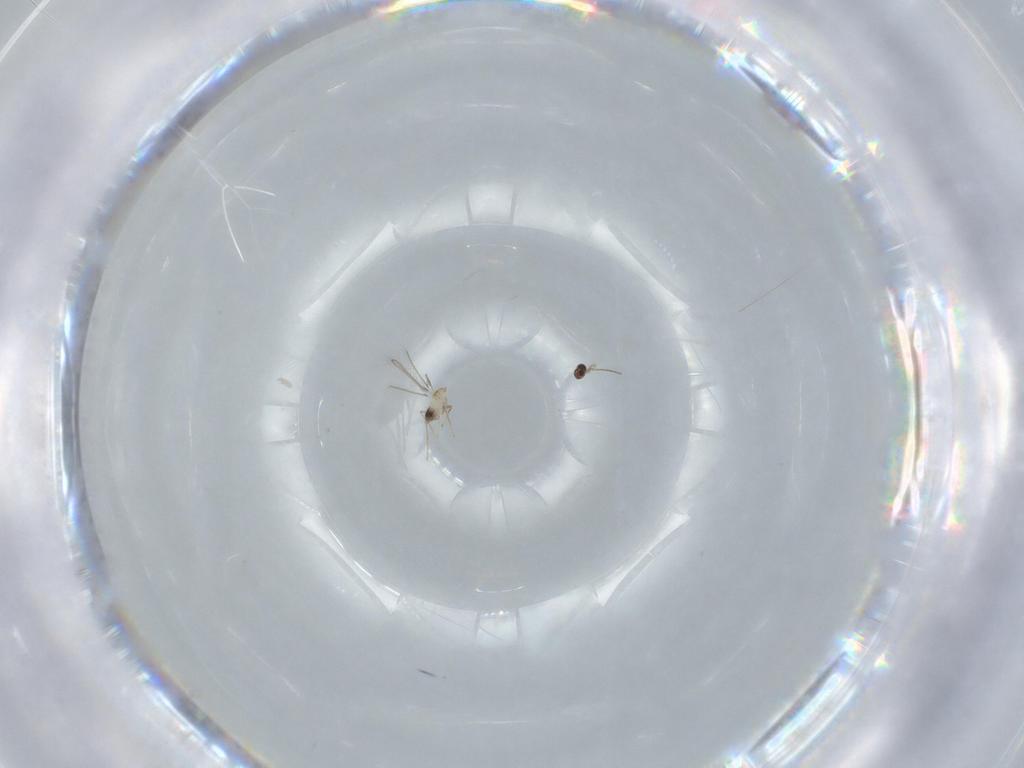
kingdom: Animalia
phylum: Arthropoda
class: Insecta
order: Hymenoptera
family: Mymaridae
